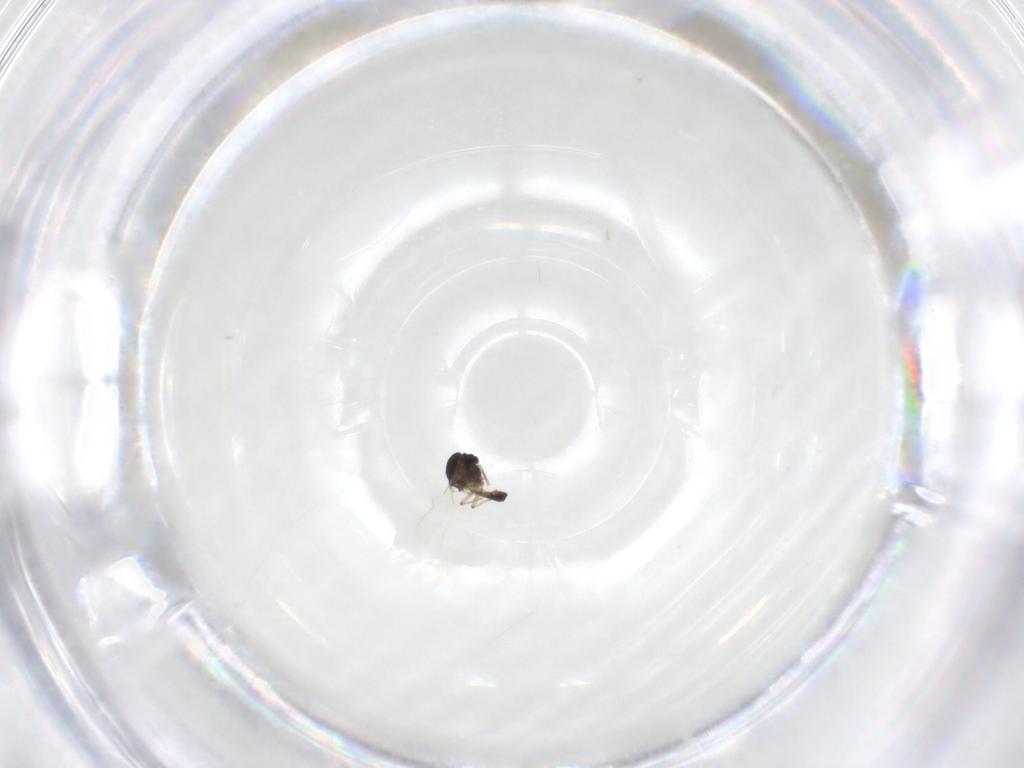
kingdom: Animalia
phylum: Arthropoda
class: Insecta
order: Diptera
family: Chironomidae
